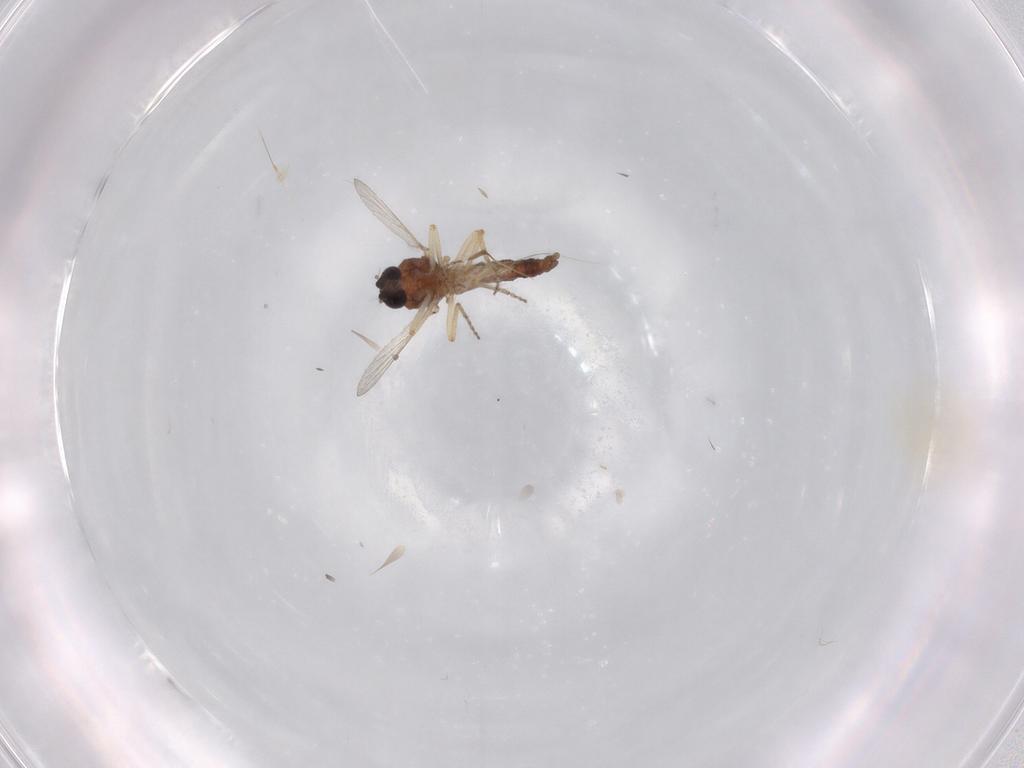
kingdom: Animalia
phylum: Arthropoda
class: Insecta
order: Diptera
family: Ceratopogonidae
